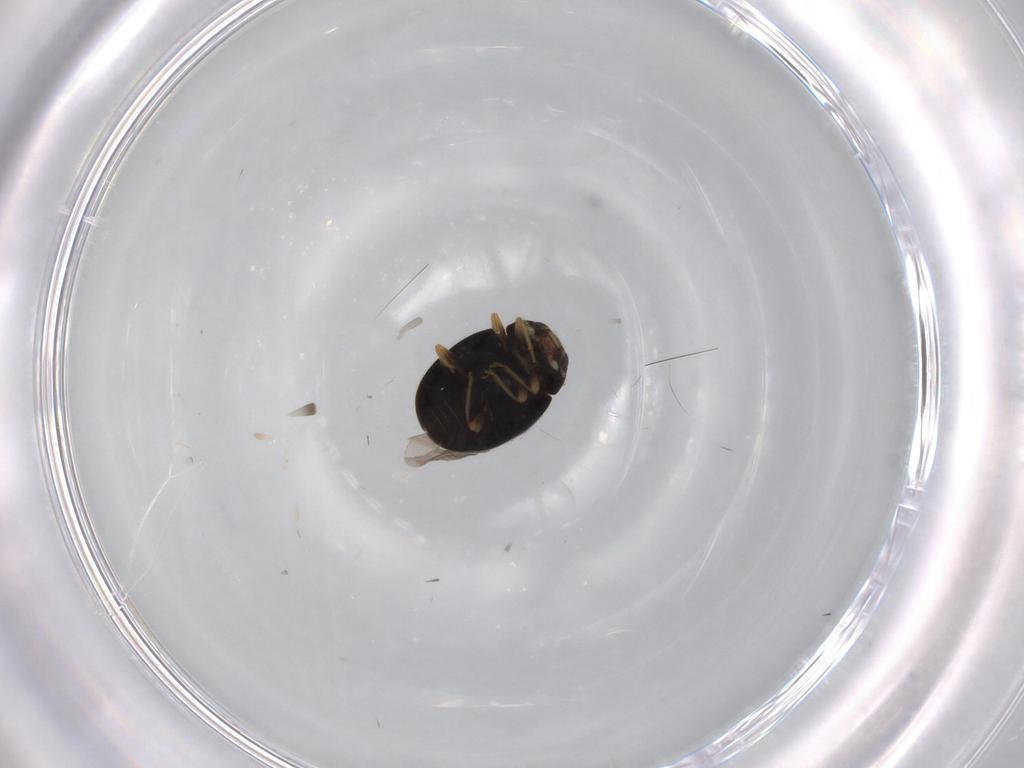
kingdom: Animalia
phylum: Arthropoda
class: Insecta
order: Coleoptera
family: Coccinellidae
